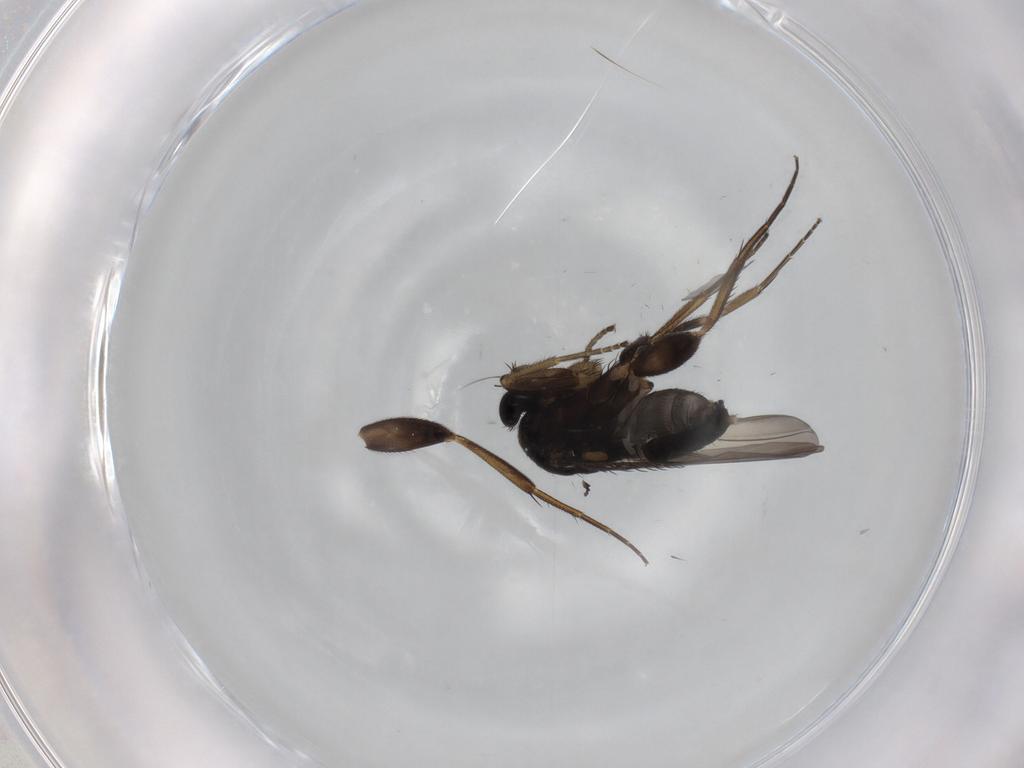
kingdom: Animalia
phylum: Arthropoda
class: Insecta
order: Diptera
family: Phoridae
